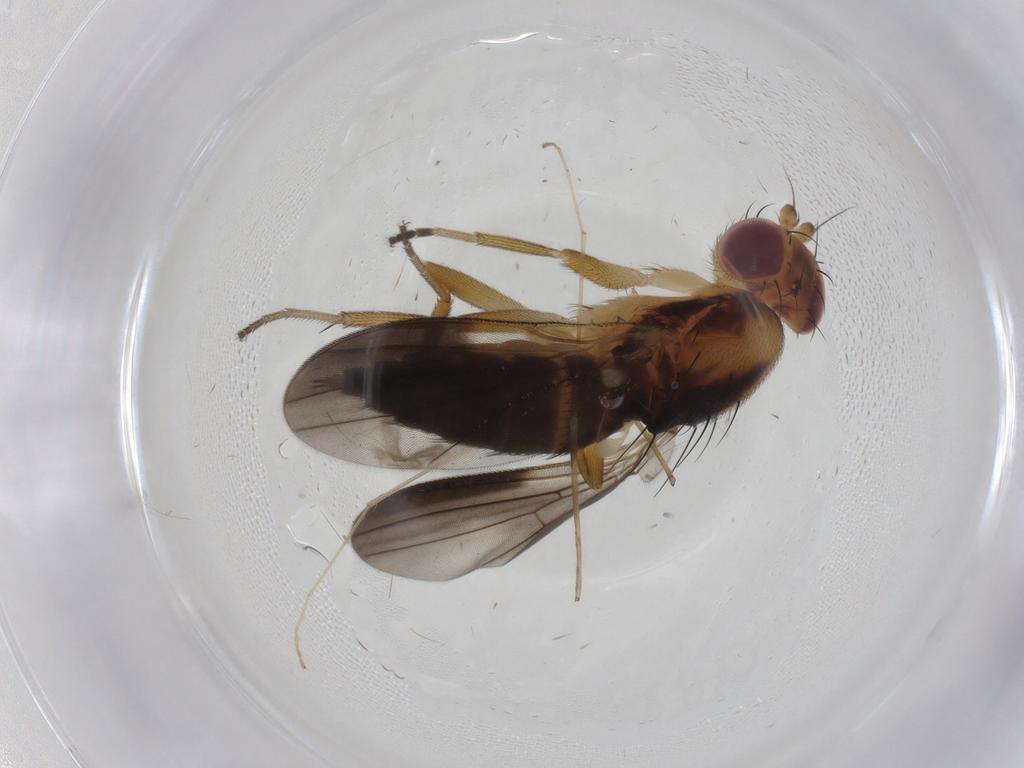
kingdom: Animalia
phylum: Arthropoda
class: Insecta
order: Diptera
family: Clusiidae
